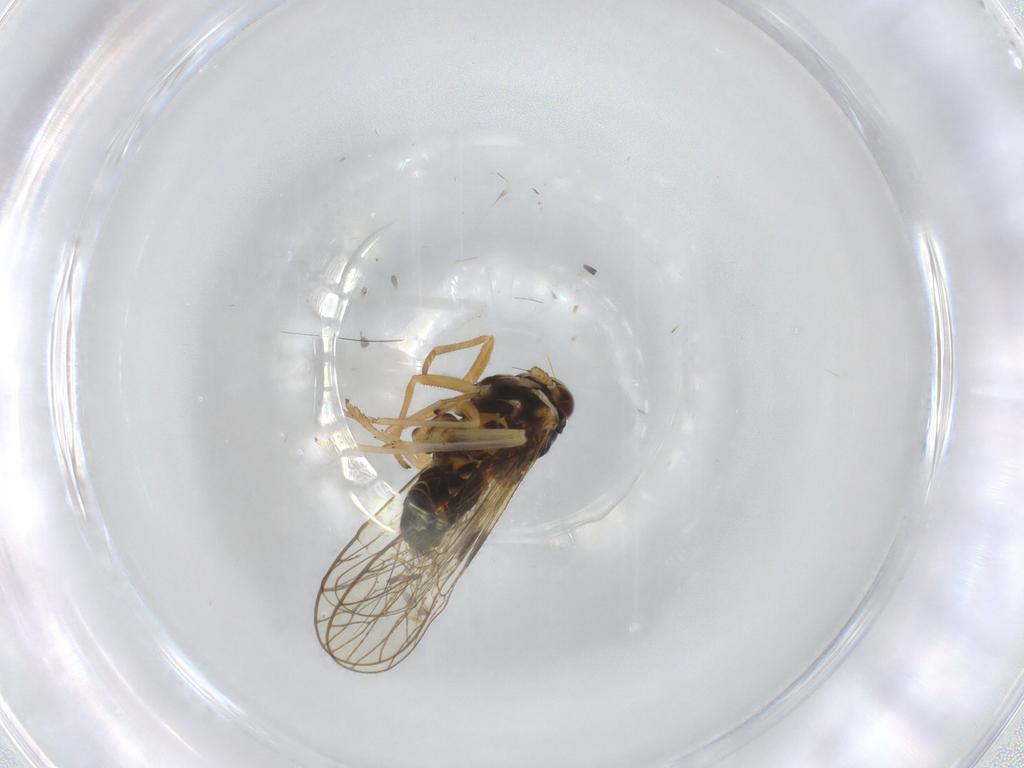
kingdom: Animalia
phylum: Arthropoda
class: Insecta
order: Hemiptera
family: Cicadellidae
